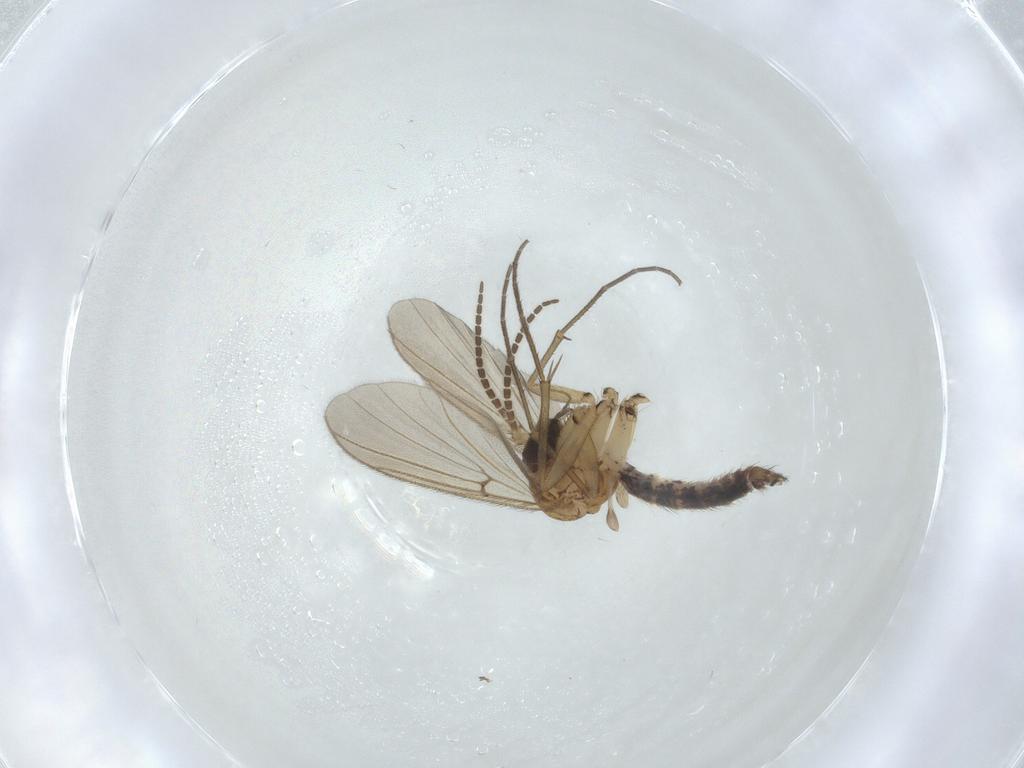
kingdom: Animalia
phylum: Arthropoda
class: Insecta
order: Diptera
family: Mycetophilidae
